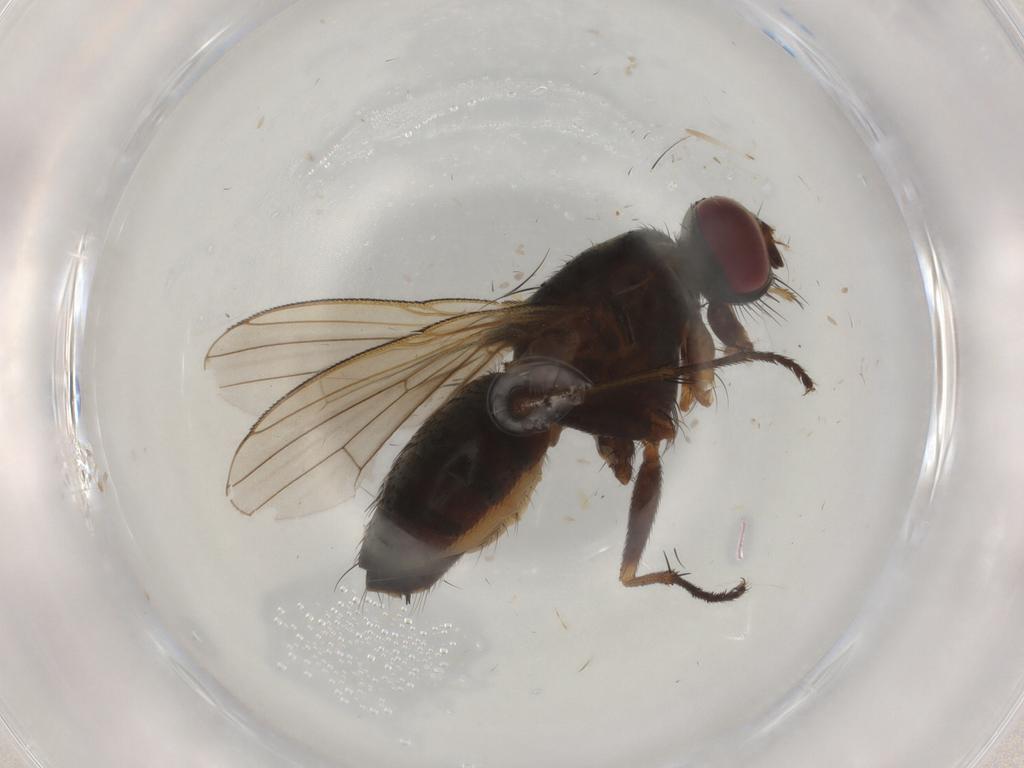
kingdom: Animalia
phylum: Arthropoda
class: Insecta
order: Diptera
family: Muscidae
